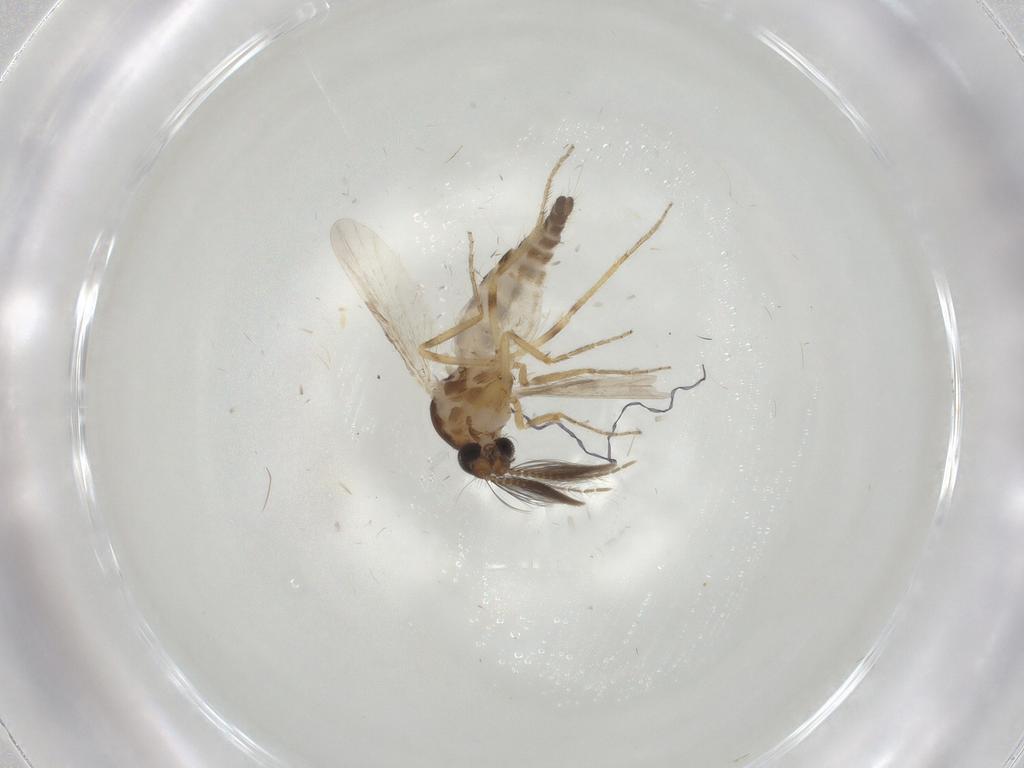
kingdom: Animalia
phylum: Arthropoda
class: Insecta
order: Diptera
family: Ceratopogonidae
